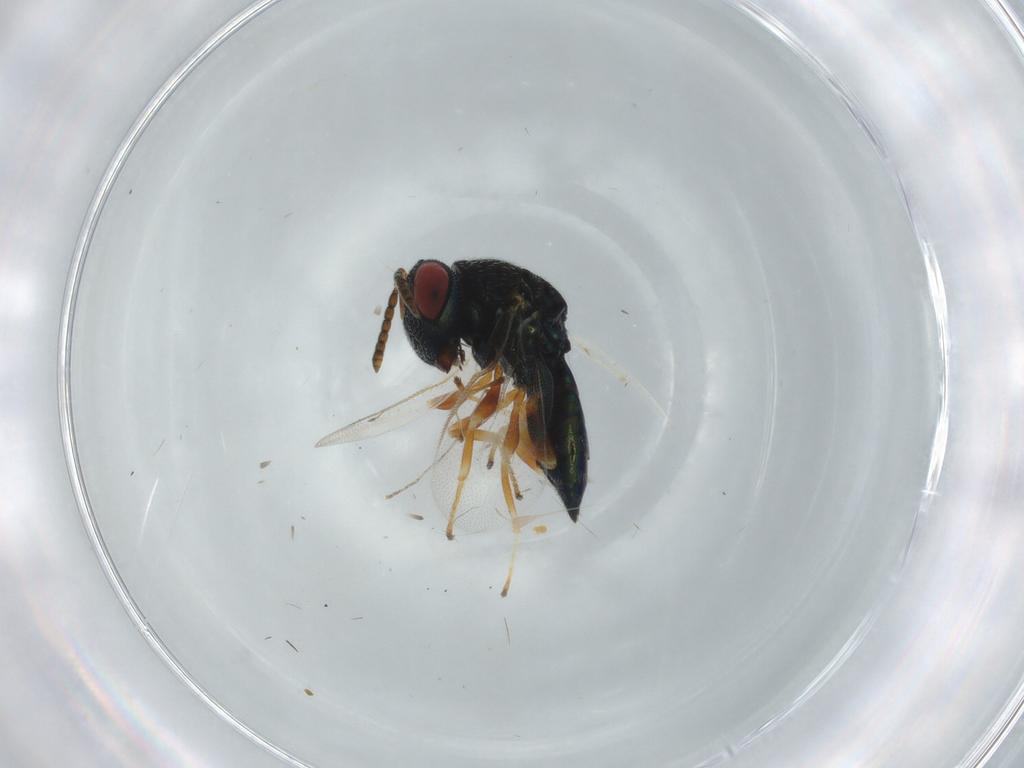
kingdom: Animalia
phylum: Arthropoda
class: Insecta
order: Hymenoptera
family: Encyrtidae
